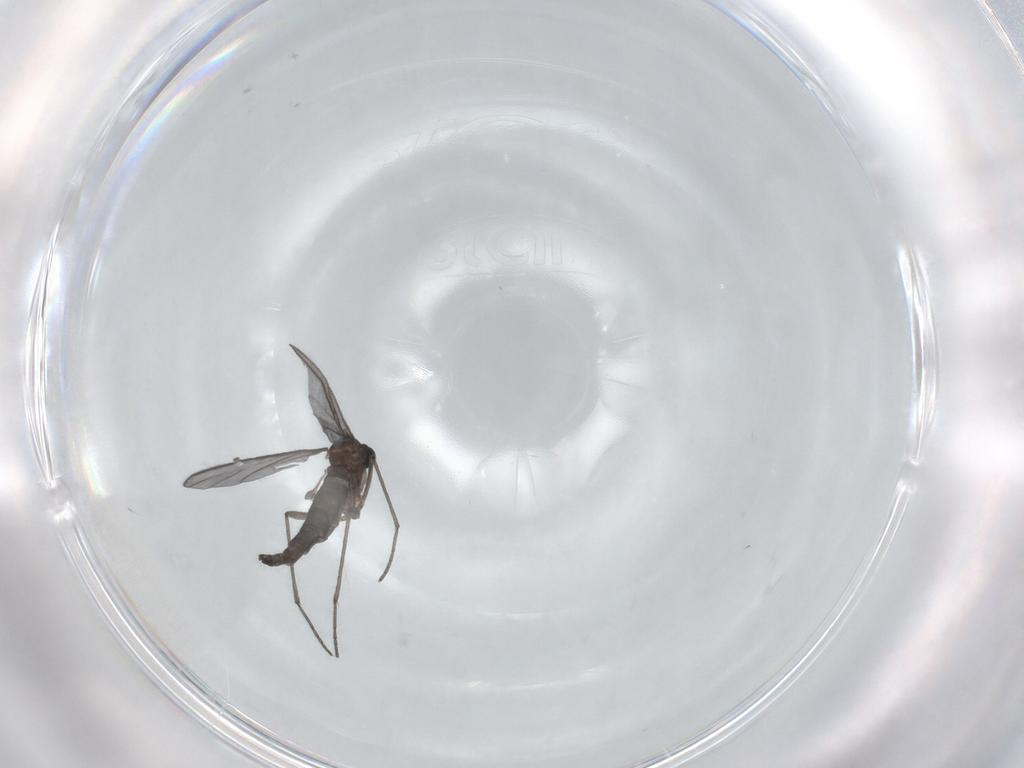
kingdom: Animalia
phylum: Arthropoda
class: Insecta
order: Diptera
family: Sciaridae
